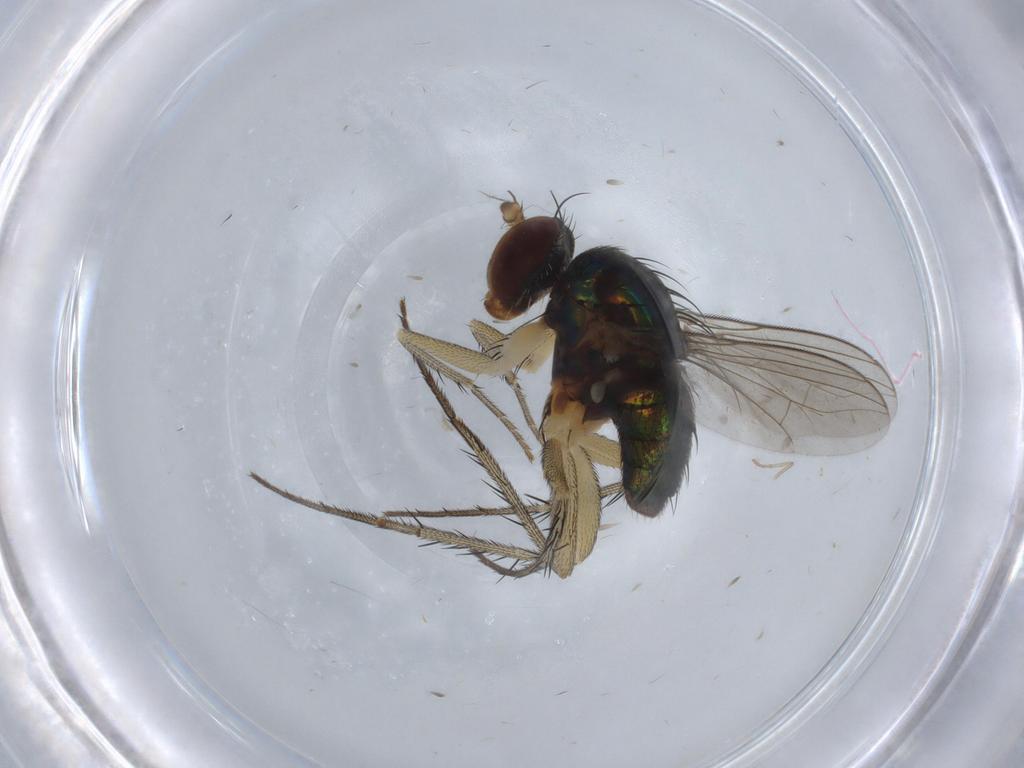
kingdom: Animalia
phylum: Arthropoda
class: Insecta
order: Diptera
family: Dolichopodidae
